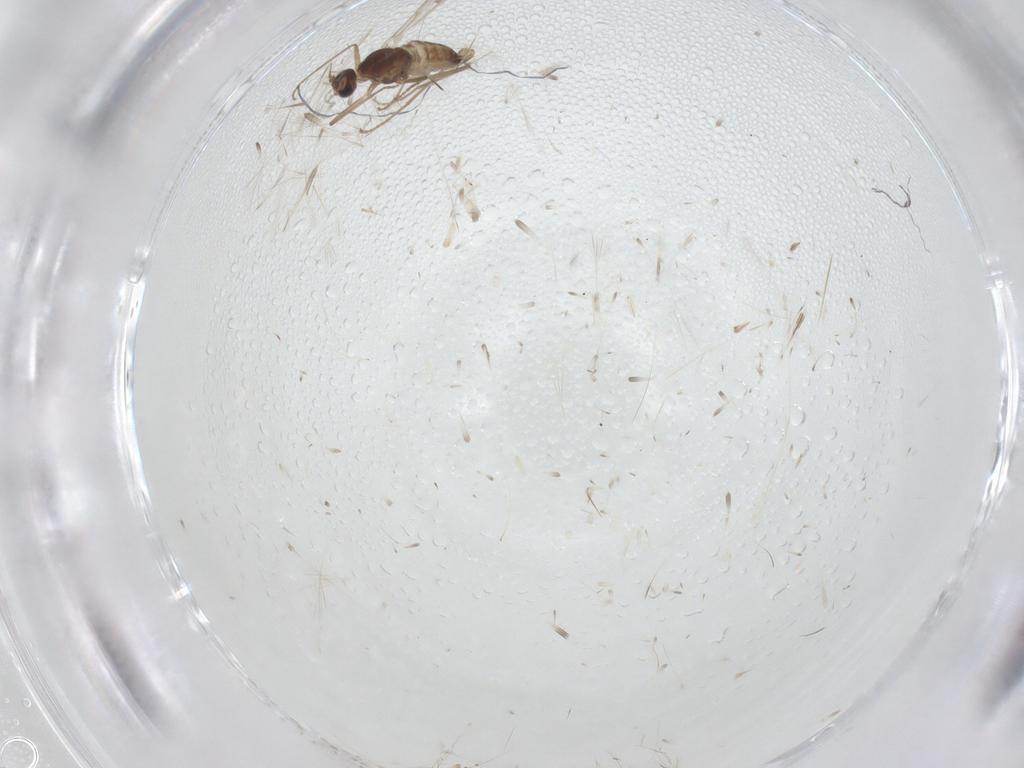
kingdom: Animalia
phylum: Arthropoda
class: Insecta
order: Diptera
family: Cecidomyiidae
